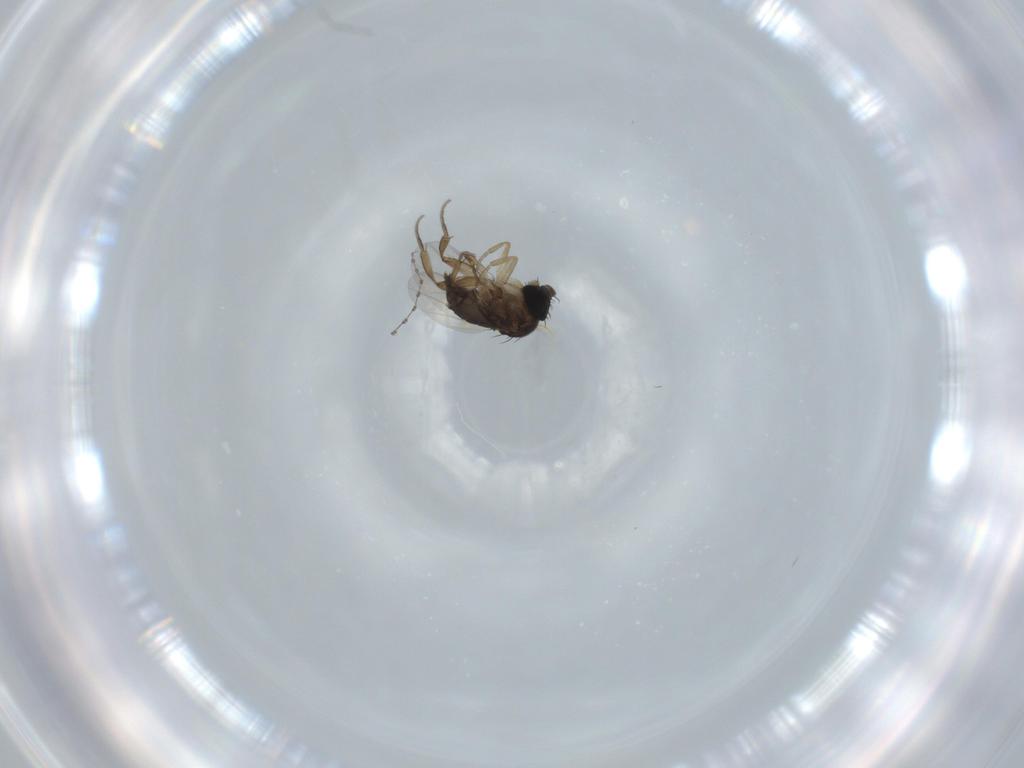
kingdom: Animalia
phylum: Arthropoda
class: Insecta
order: Diptera
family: Phoridae
